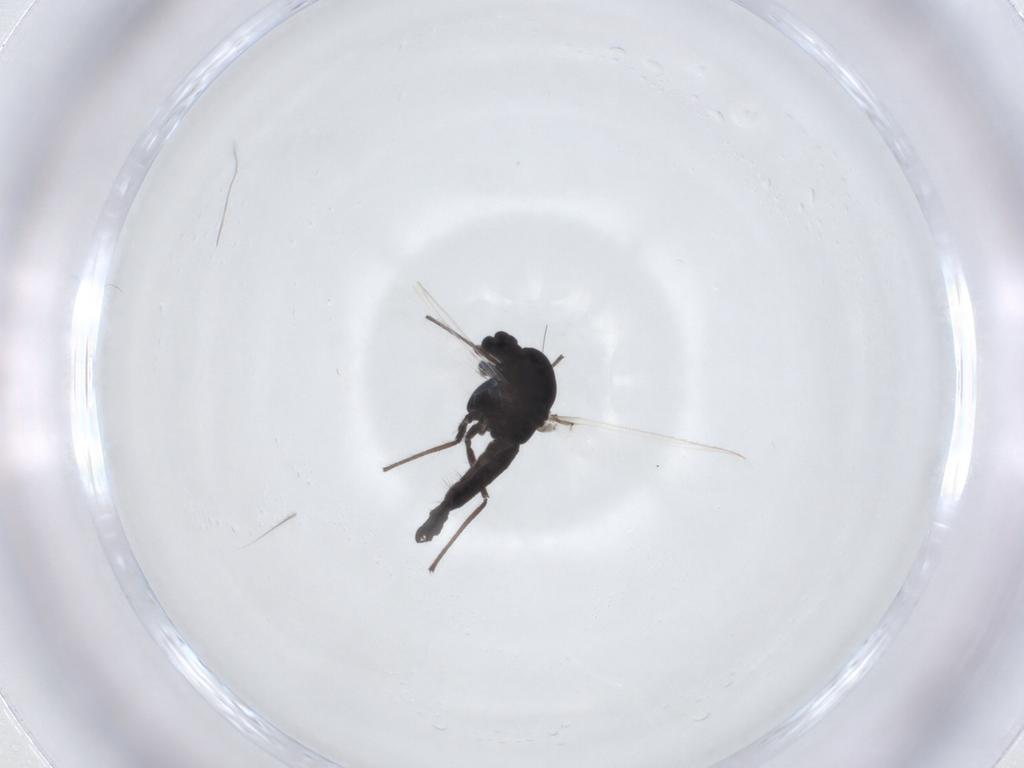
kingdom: Animalia
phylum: Arthropoda
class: Insecta
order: Diptera
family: Chironomidae
